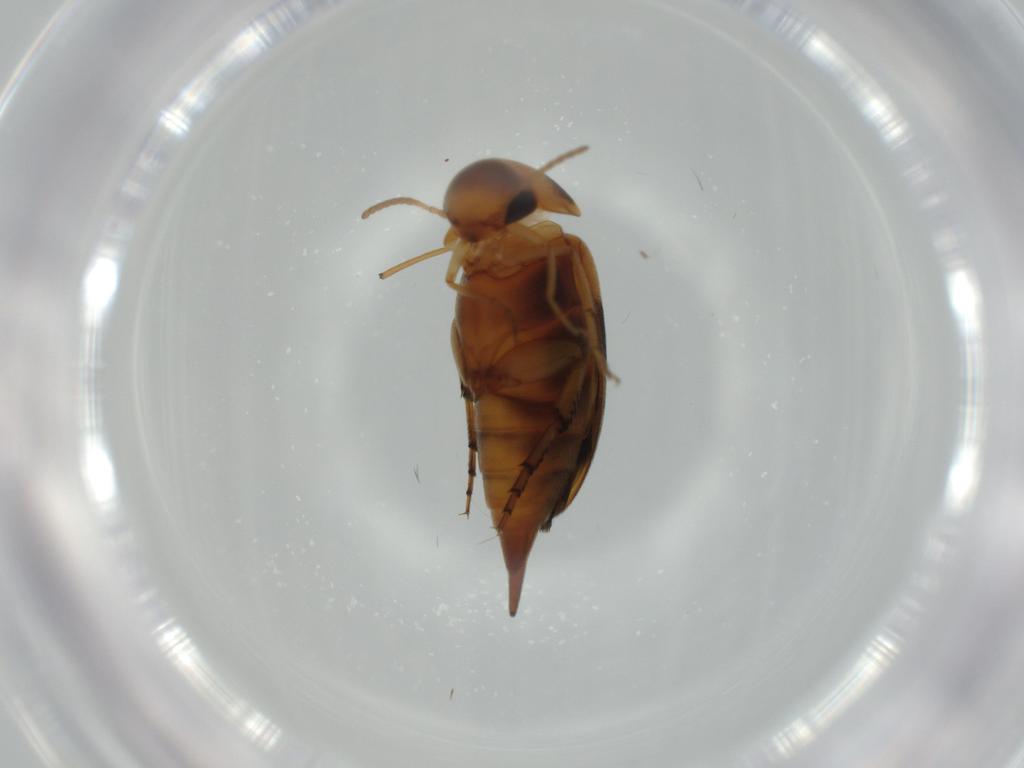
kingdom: Animalia
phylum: Arthropoda
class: Insecta
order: Coleoptera
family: Mordellidae
